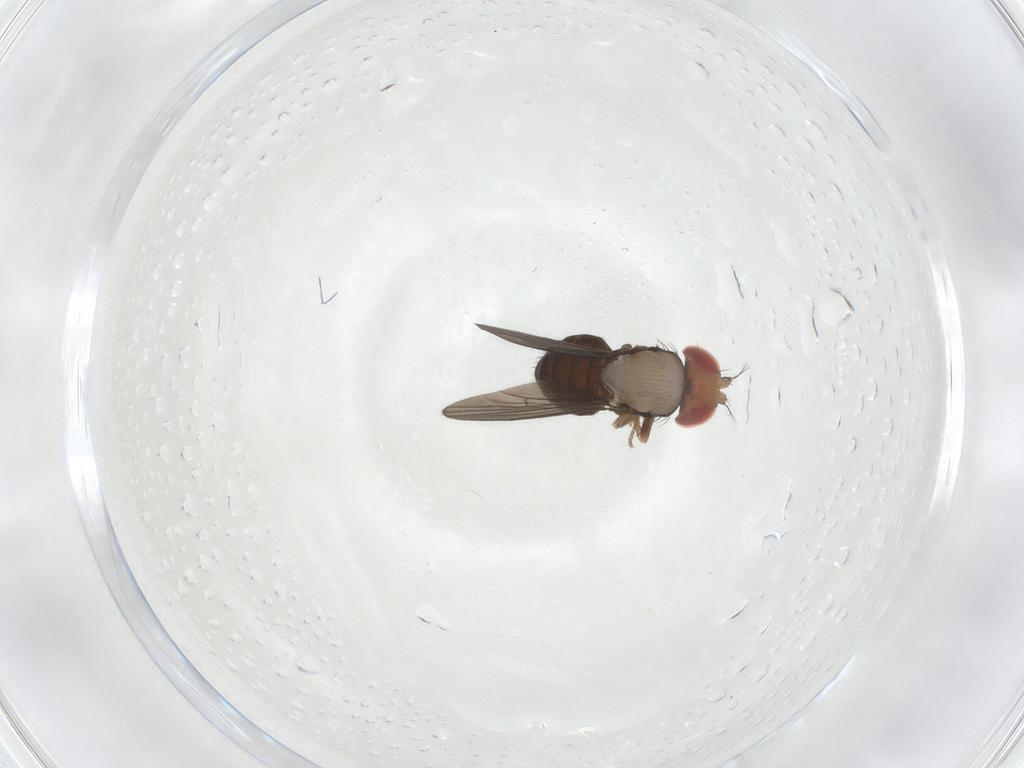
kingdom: Animalia
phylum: Arthropoda
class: Insecta
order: Diptera
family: Drosophilidae
